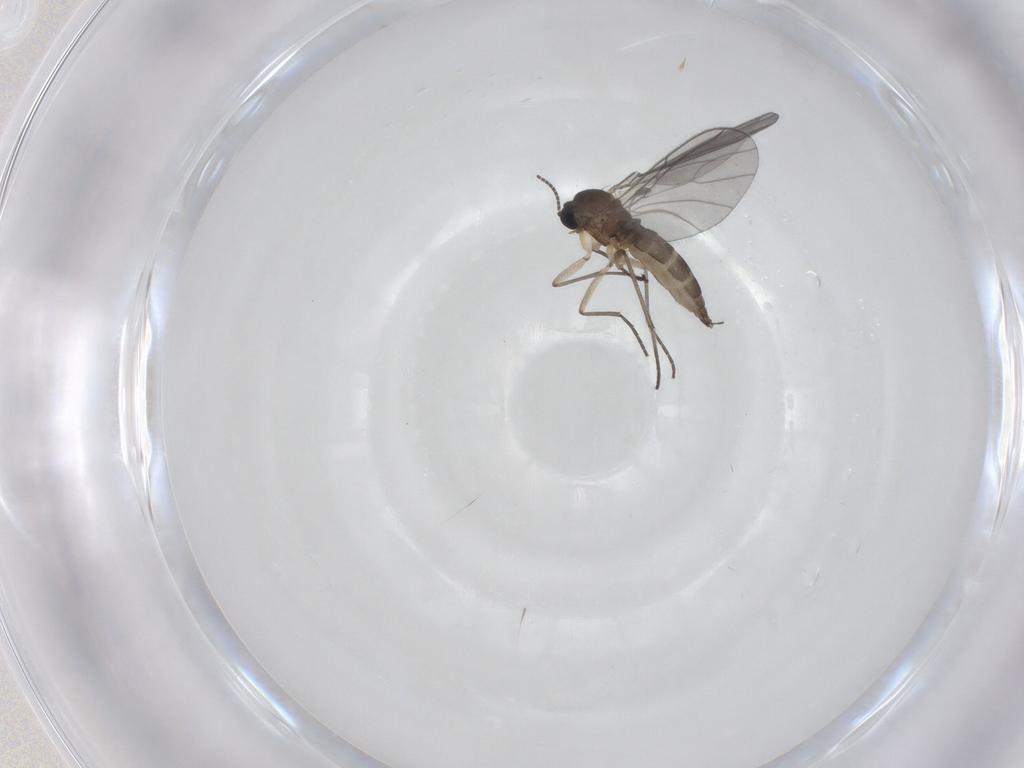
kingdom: Animalia
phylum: Arthropoda
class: Insecta
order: Diptera
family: Sciaridae
